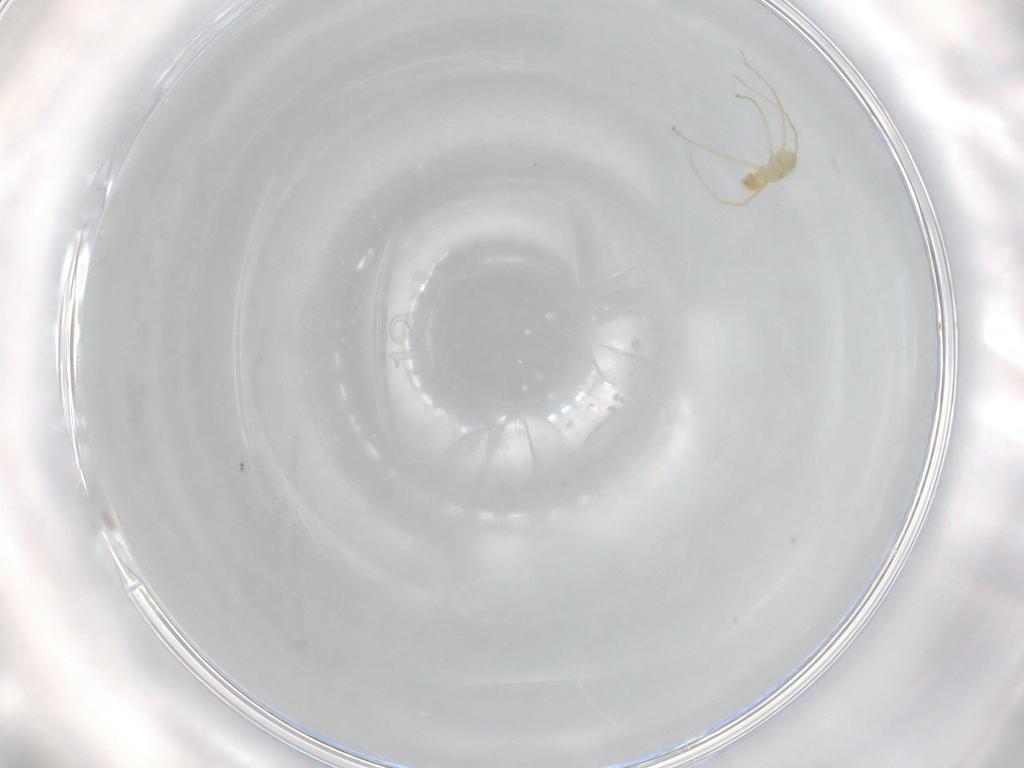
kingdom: Animalia
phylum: Arthropoda
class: Arachnida
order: Trombidiformes
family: Erythraeidae
